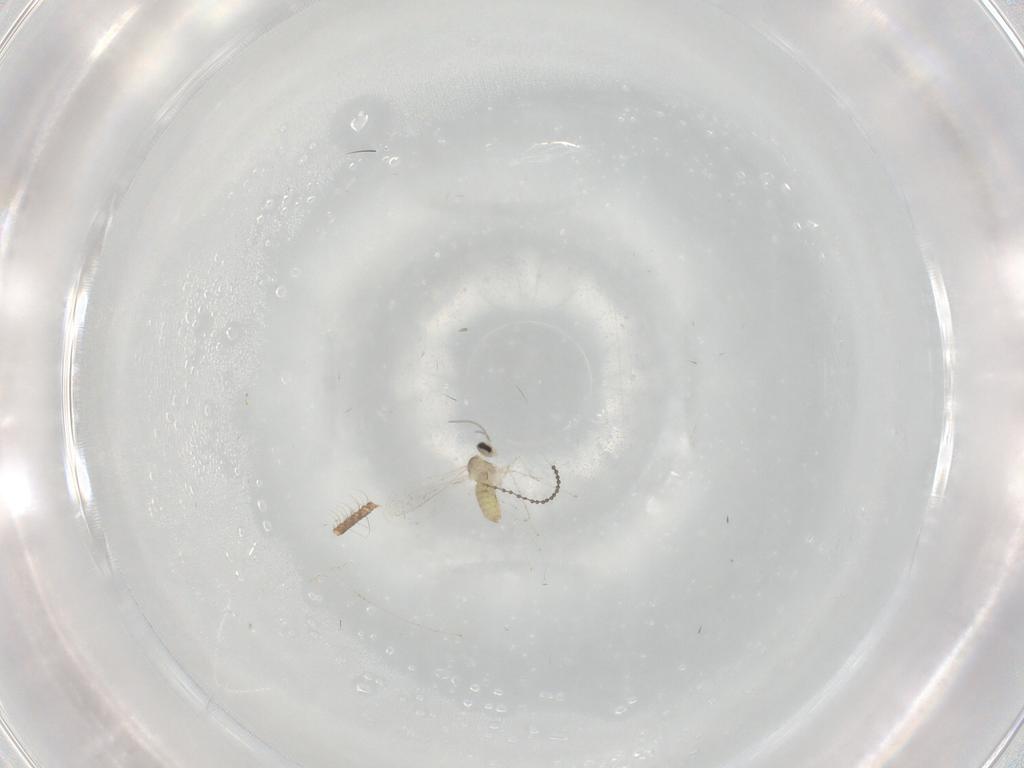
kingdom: Animalia
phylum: Arthropoda
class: Insecta
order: Diptera
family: Cecidomyiidae
